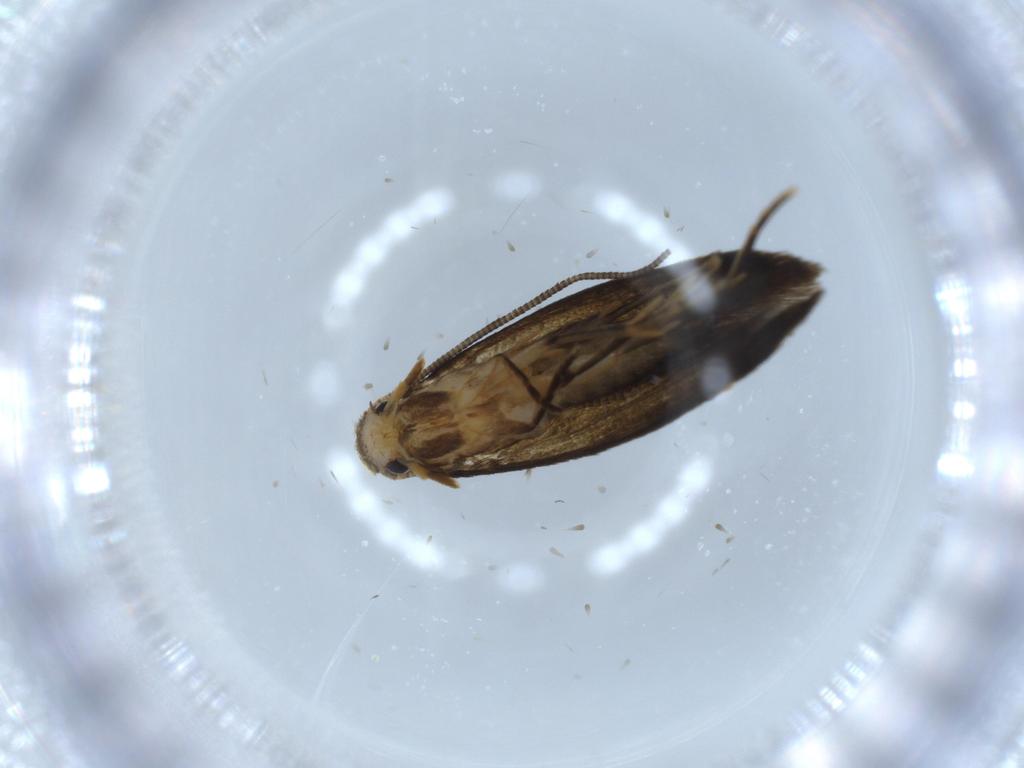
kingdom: Animalia
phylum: Arthropoda
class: Insecta
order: Lepidoptera
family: Tineidae
